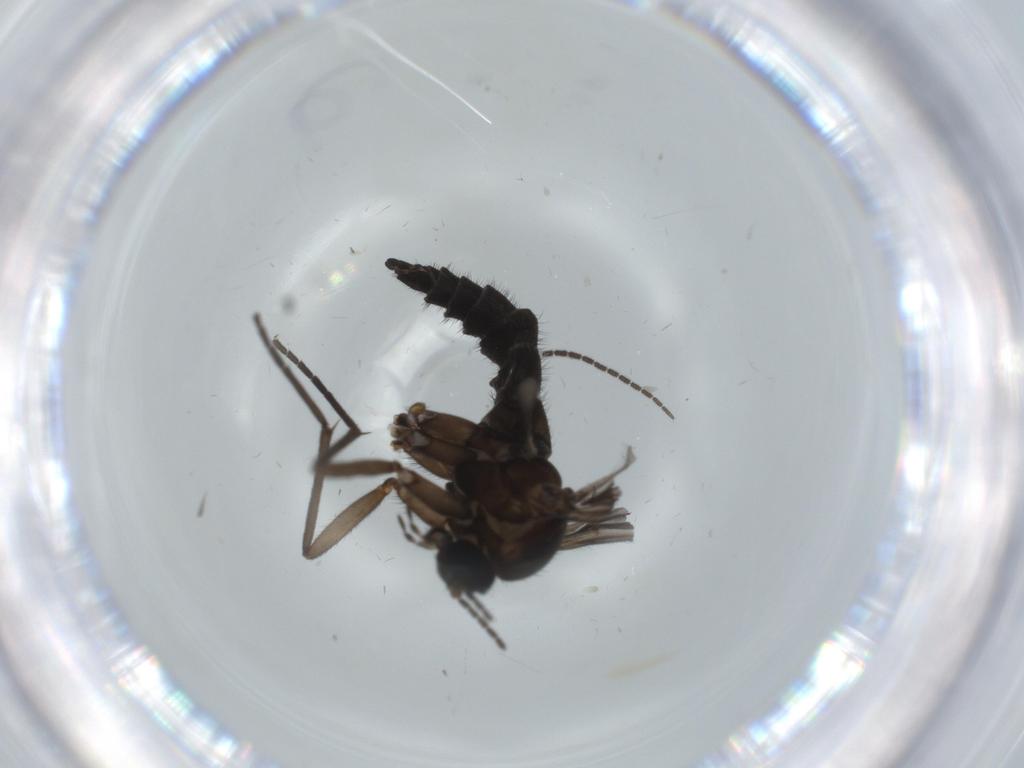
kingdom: Animalia
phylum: Arthropoda
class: Insecta
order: Diptera
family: Sciaridae
